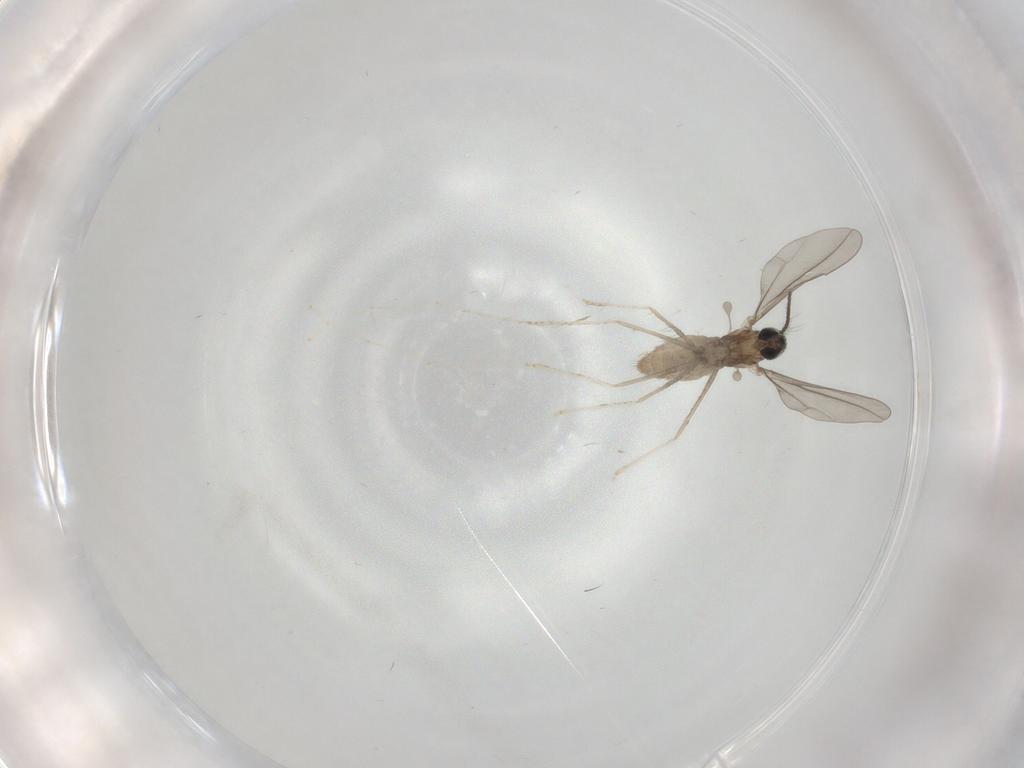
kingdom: Animalia
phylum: Arthropoda
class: Insecta
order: Diptera
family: Cecidomyiidae
